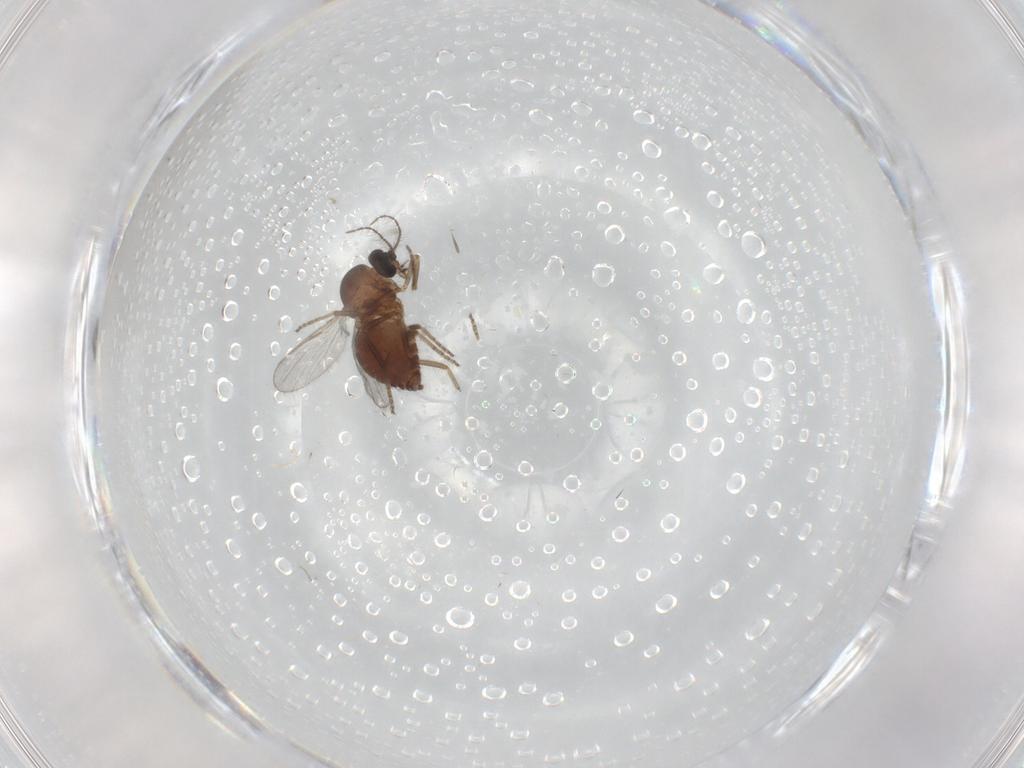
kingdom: Animalia
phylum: Arthropoda
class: Insecta
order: Diptera
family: Ceratopogonidae
